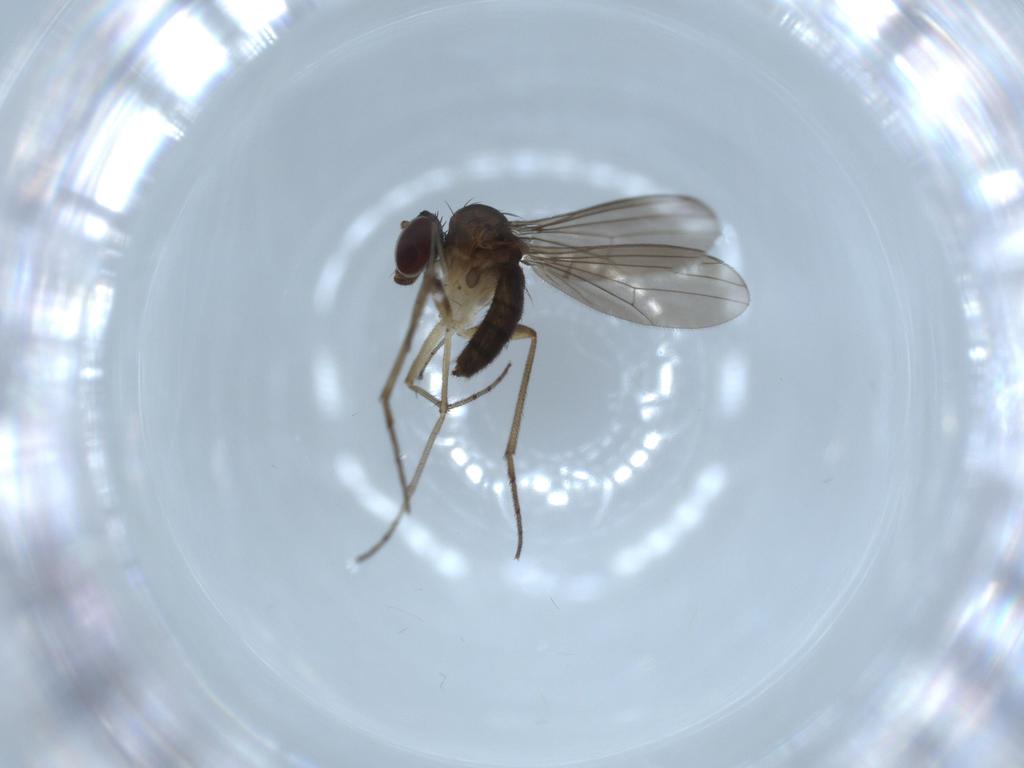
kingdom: Animalia
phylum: Arthropoda
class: Insecta
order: Diptera
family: Dolichopodidae
